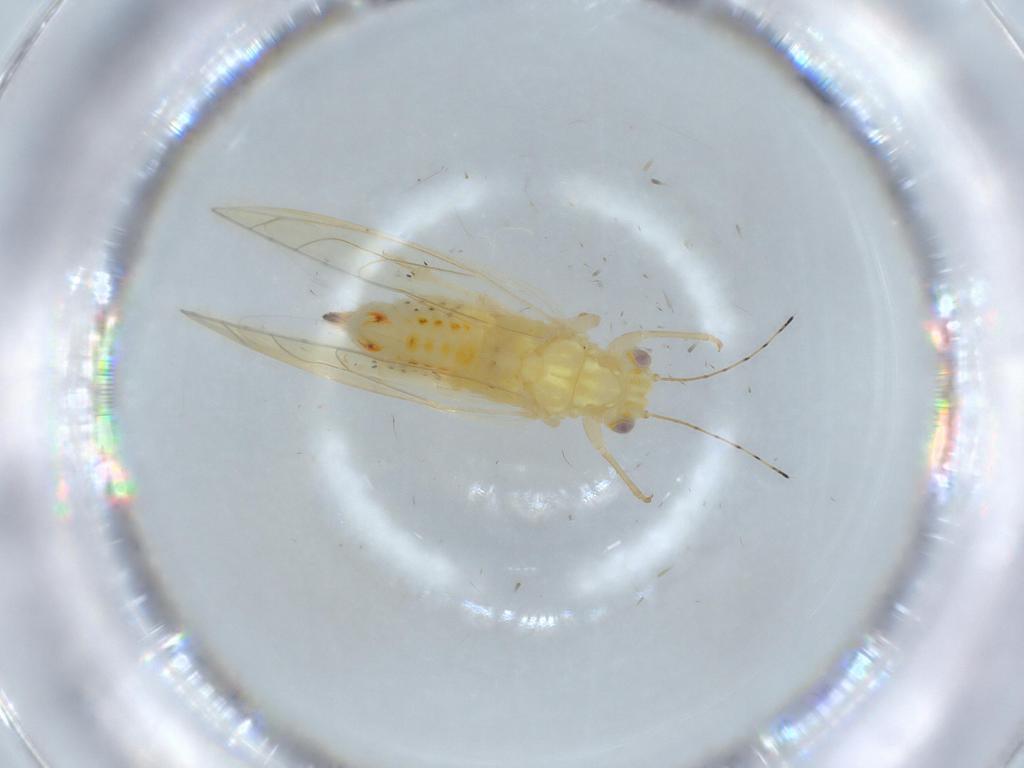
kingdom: Animalia
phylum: Arthropoda
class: Insecta
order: Hemiptera
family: Triozidae
